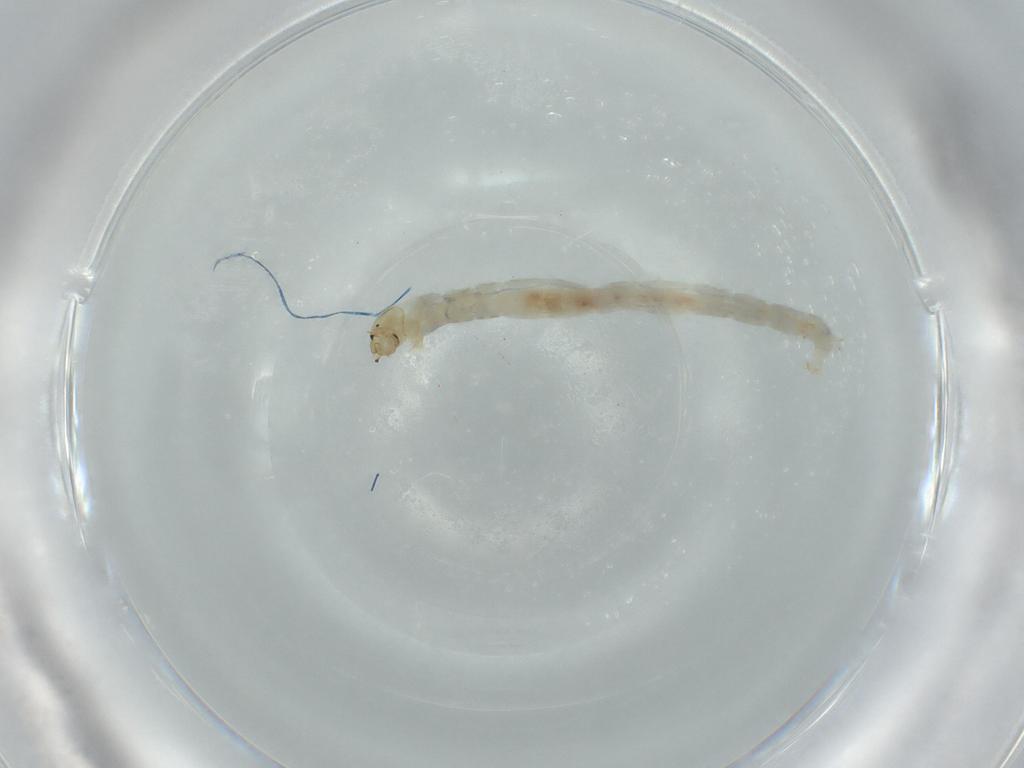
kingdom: Animalia
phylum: Arthropoda
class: Insecta
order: Diptera
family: Chironomidae
